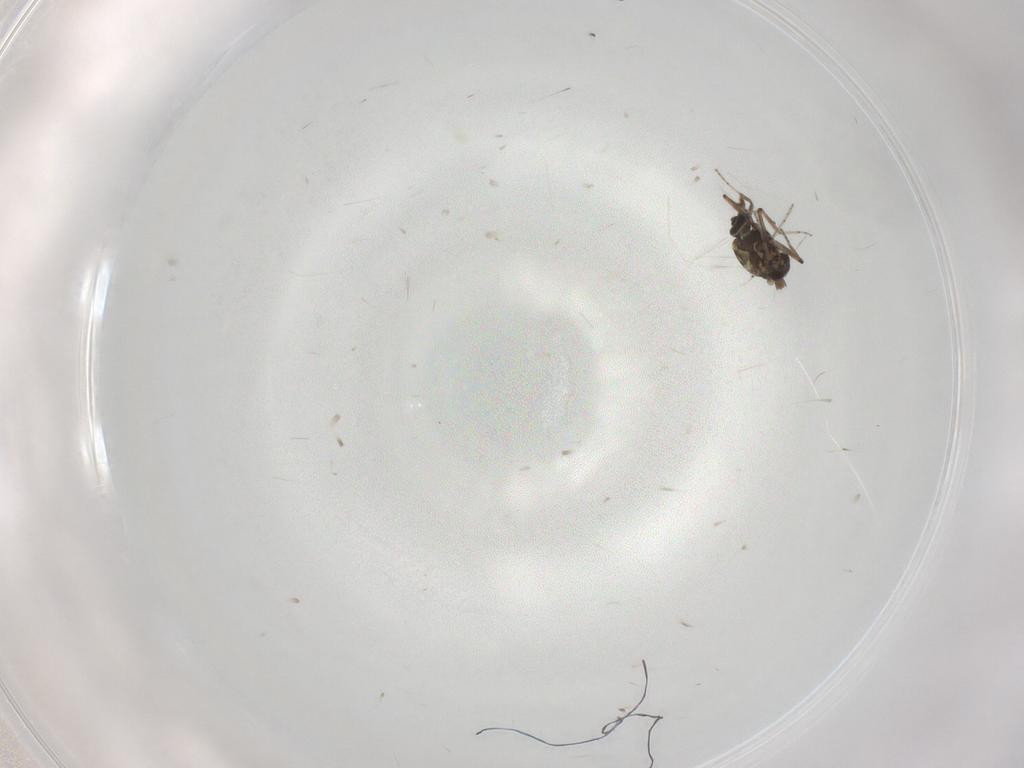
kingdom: Animalia
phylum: Arthropoda
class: Insecta
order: Diptera
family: Ceratopogonidae
